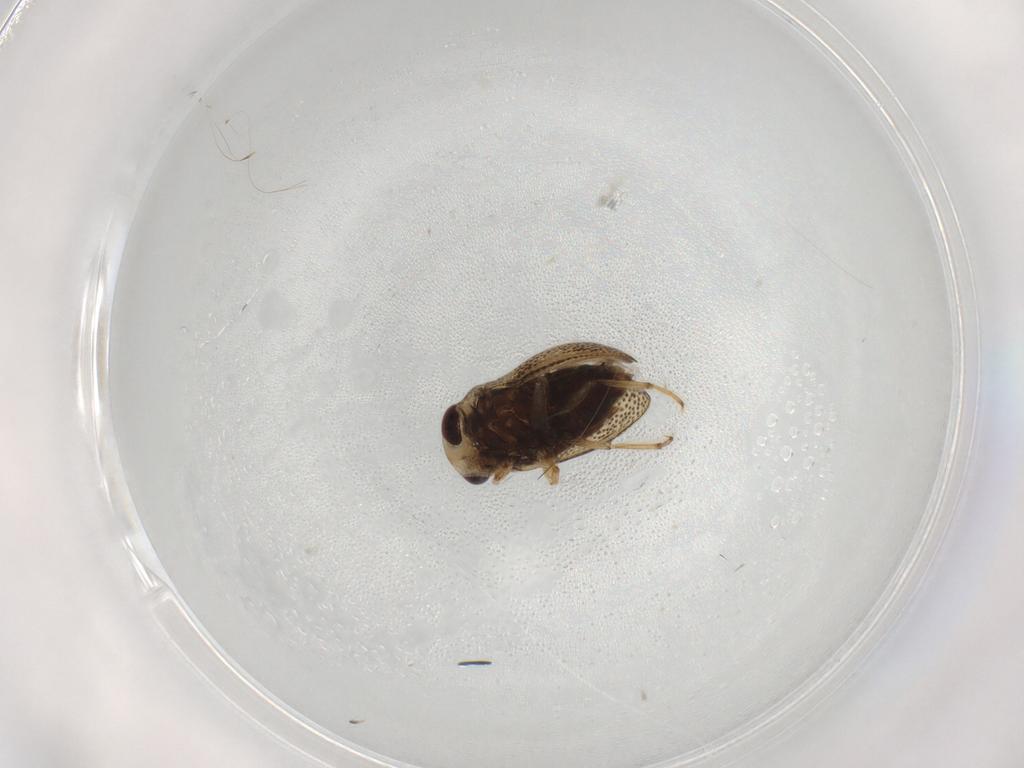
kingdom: Animalia
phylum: Arthropoda
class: Insecta
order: Hemiptera
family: Pleidae
